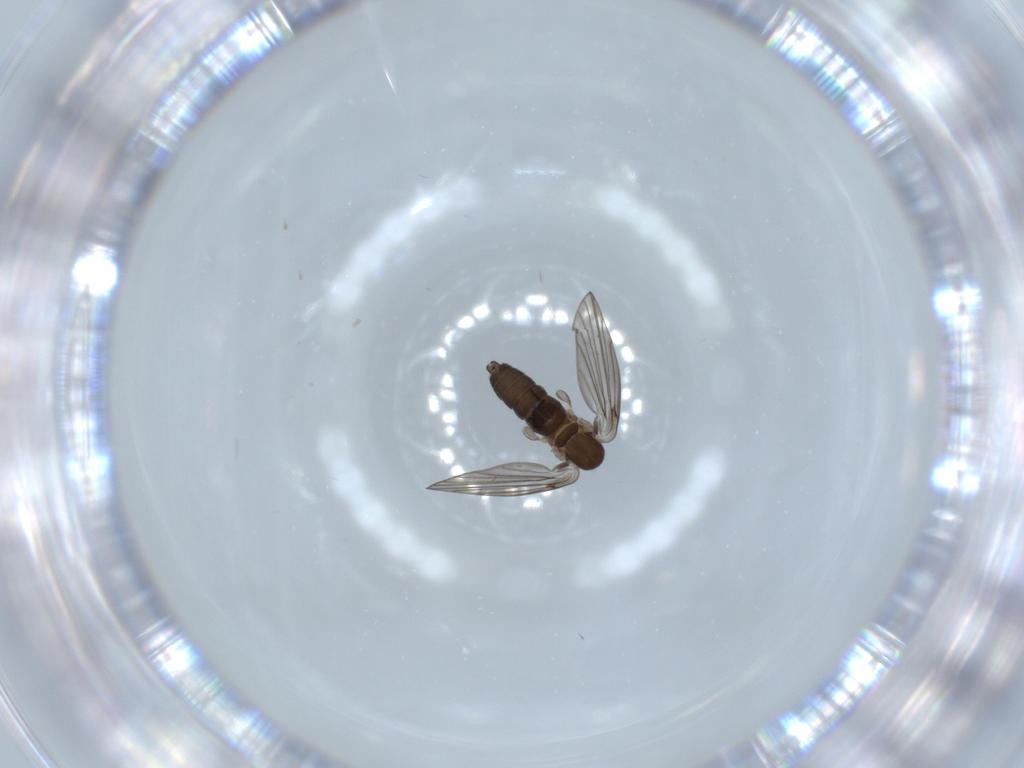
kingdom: Animalia
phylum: Arthropoda
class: Insecta
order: Diptera
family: Psychodidae
